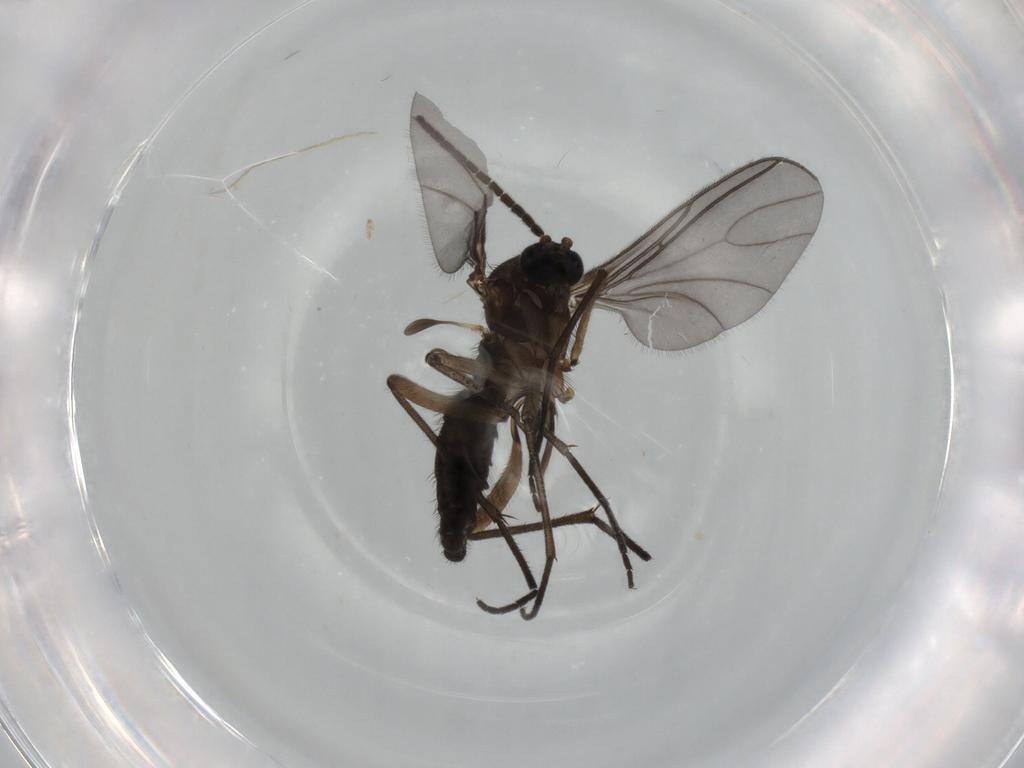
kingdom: Animalia
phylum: Arthropoda
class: Insecta
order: Diptera
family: Sciaridae
